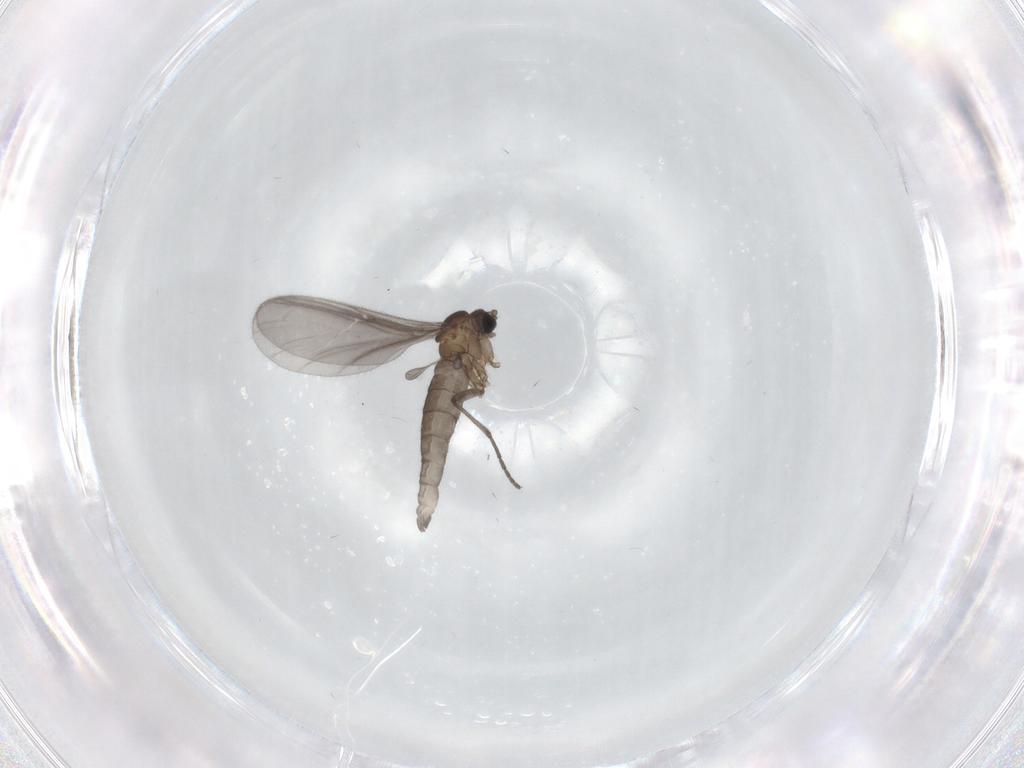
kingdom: Animalia
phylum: Arthropoda
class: Insecta
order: Diptera
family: Sciaridae
